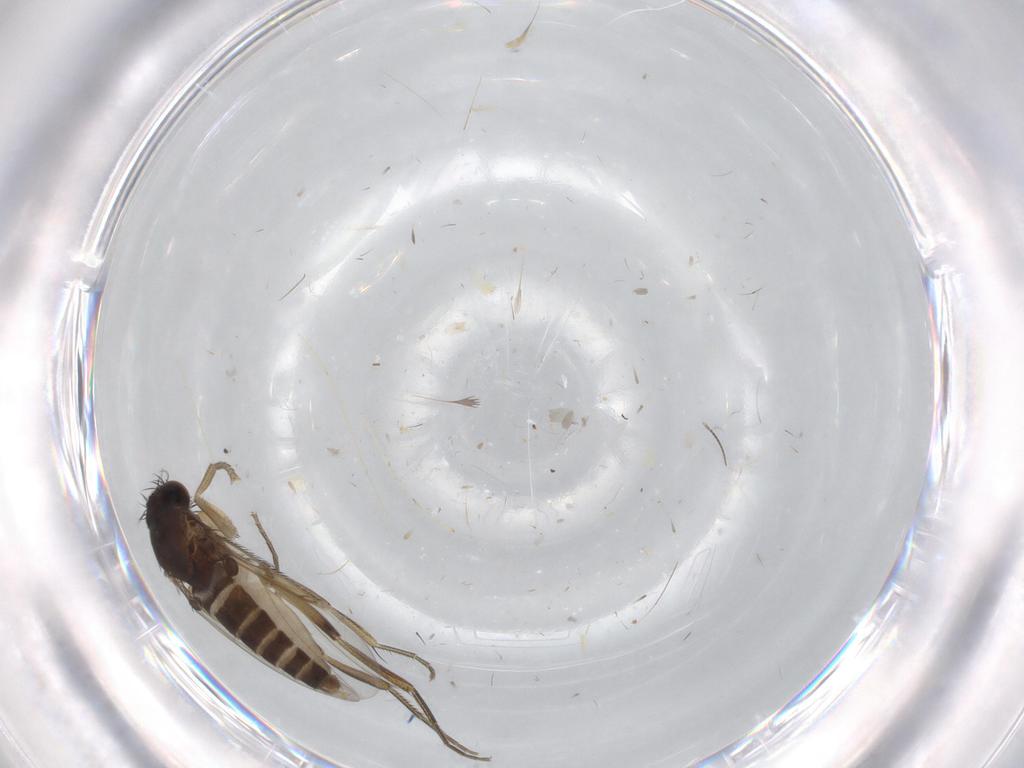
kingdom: Animalia
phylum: Arthropoda
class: Insecta
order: Diptera
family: Phoridae
